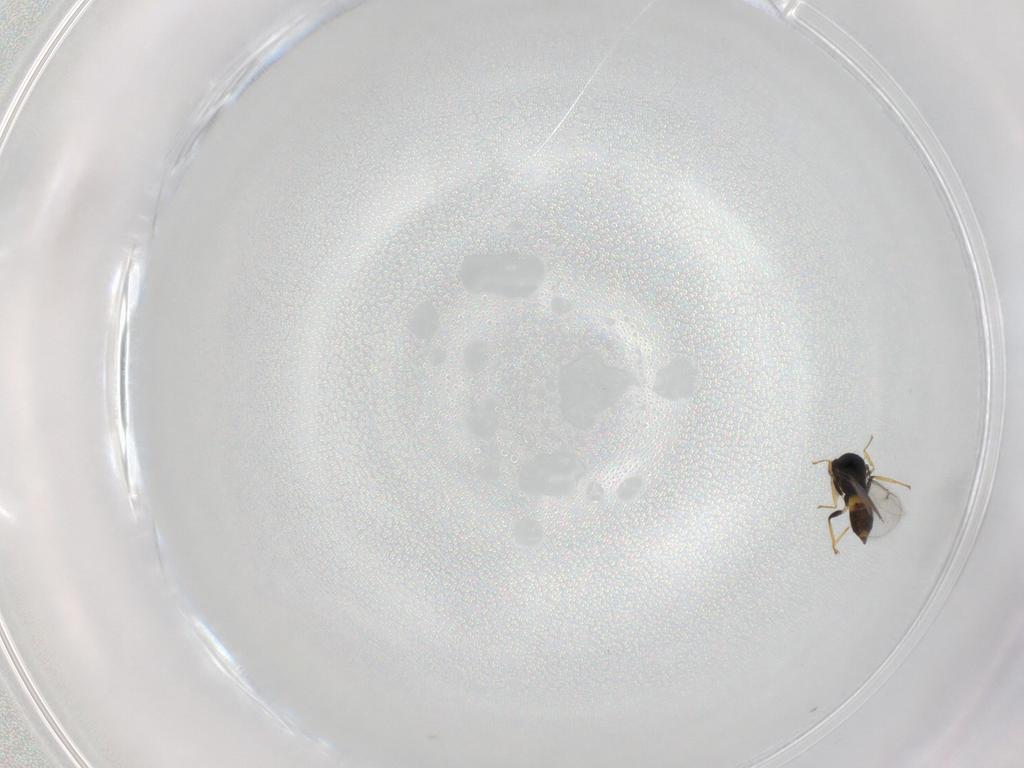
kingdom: Animalia
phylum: Arthropoda
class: Insecta
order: Hymenoptera
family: Eulophidae
